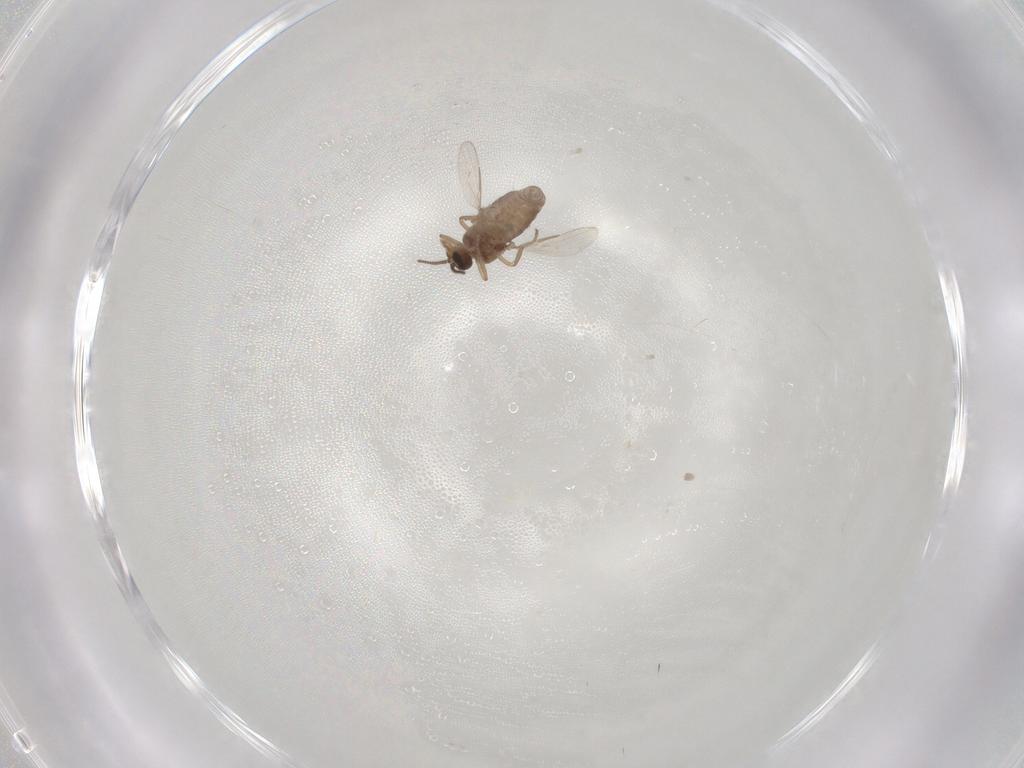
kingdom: Animalia
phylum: Arthropoda
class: Insecta
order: Diptera
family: Ceratopogonidae
